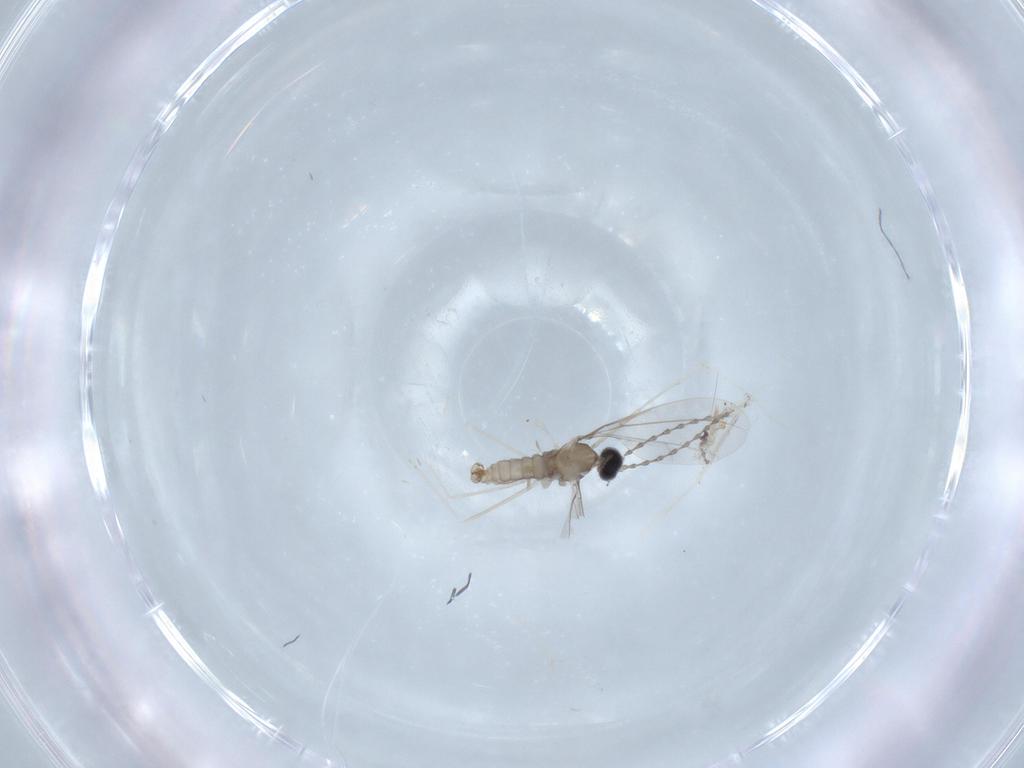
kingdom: Animalia
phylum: Arthropoda
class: Insecta
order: Diptera
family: Cecidomyiidae
